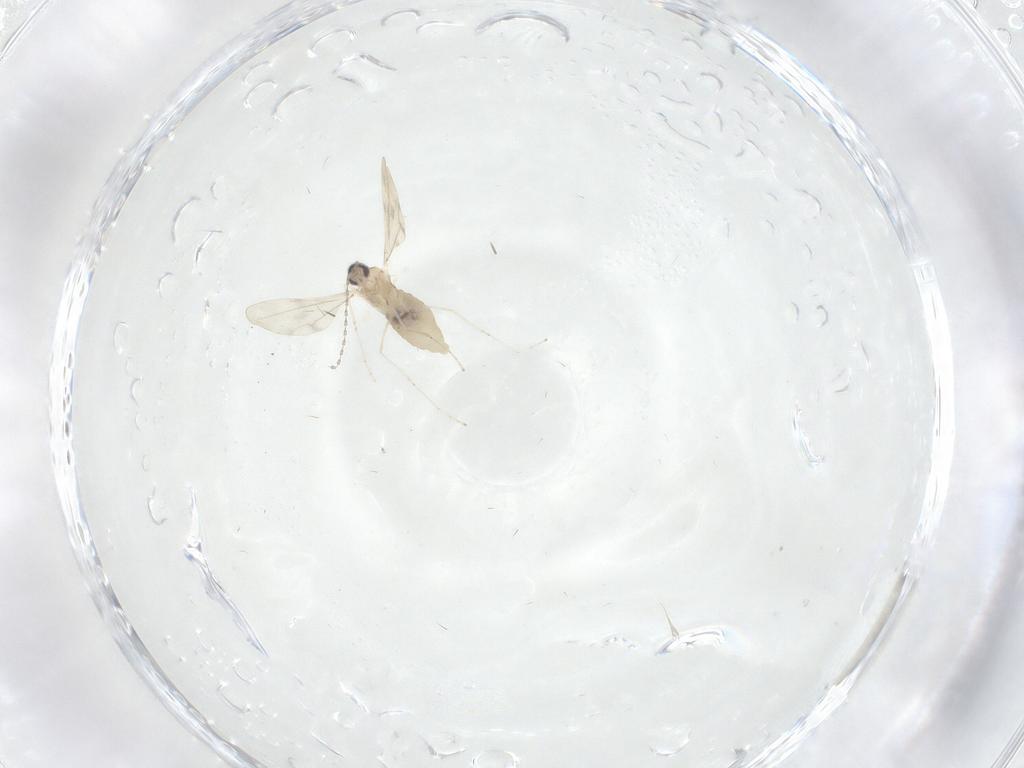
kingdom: Animalia
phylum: Arthropoda
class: Insecta
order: Diptera
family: Cecidomyiidae
